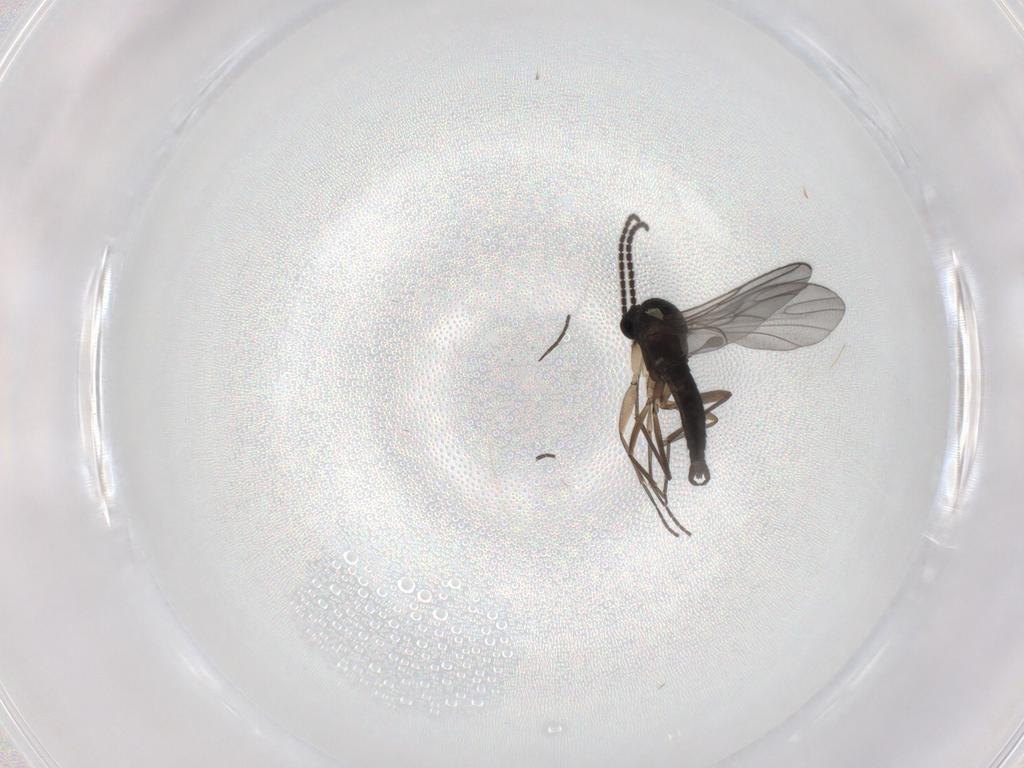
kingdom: Animalia
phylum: Arthropoda
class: Insecta
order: Diptera
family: Sciaridae
